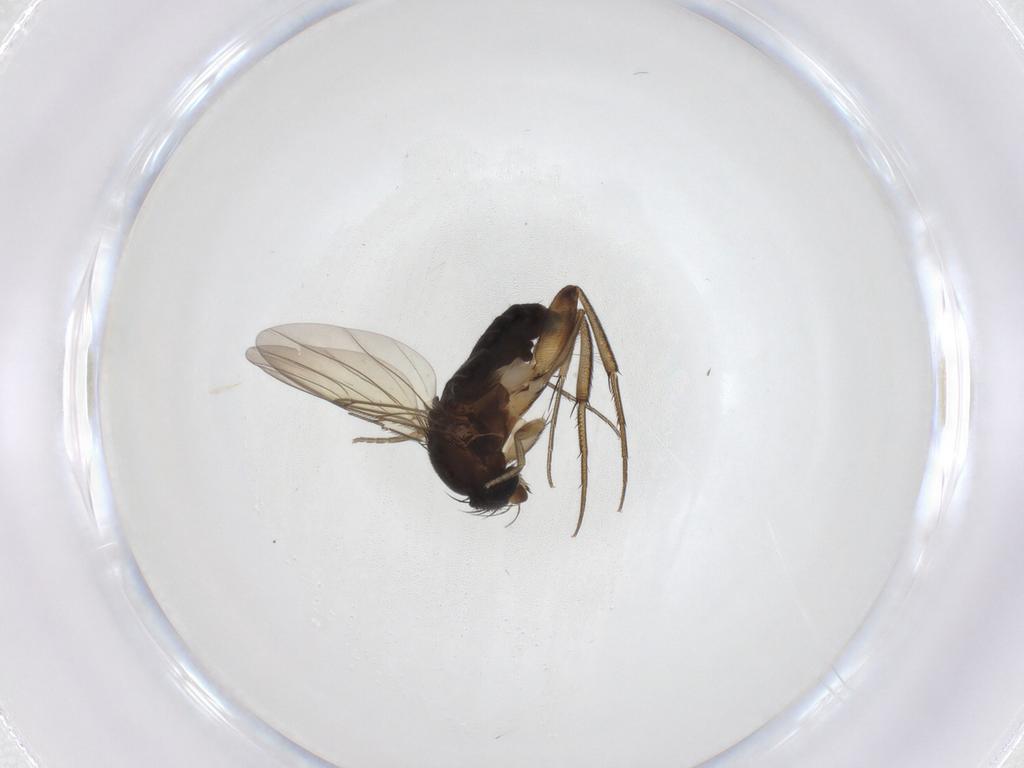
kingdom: Animalia
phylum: Arthropoda
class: Insecta
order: Diptera
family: Phoridae
